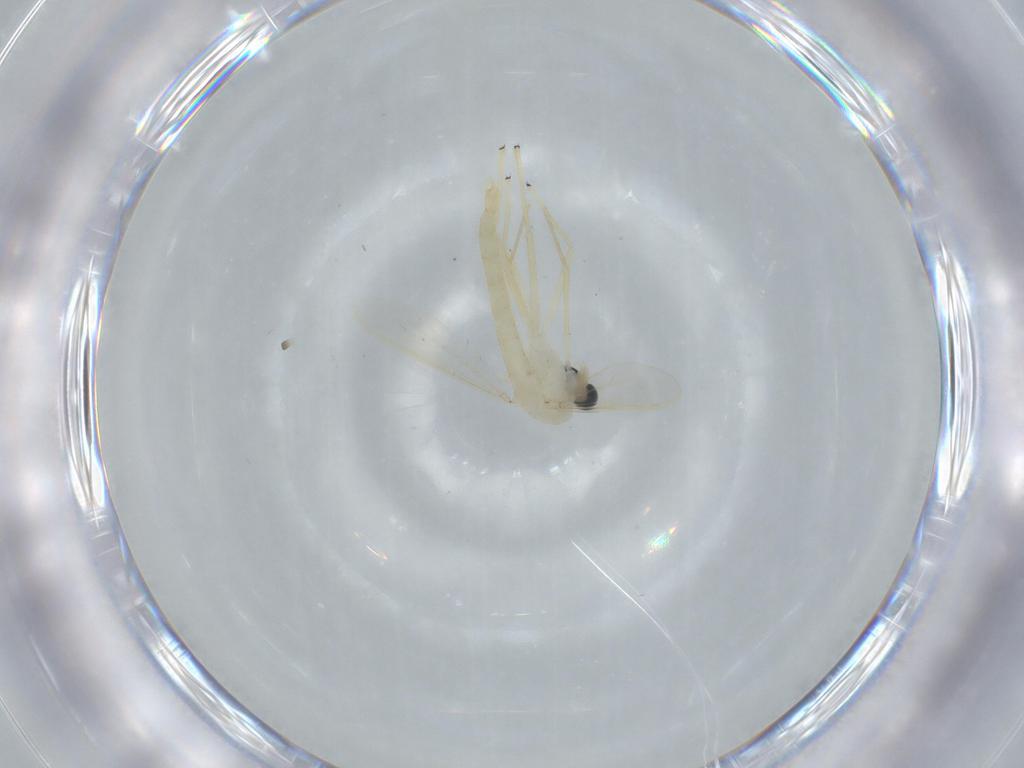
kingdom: Animalia
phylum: Arthropoda
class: Insecta
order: Diptera
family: Chironomidae
